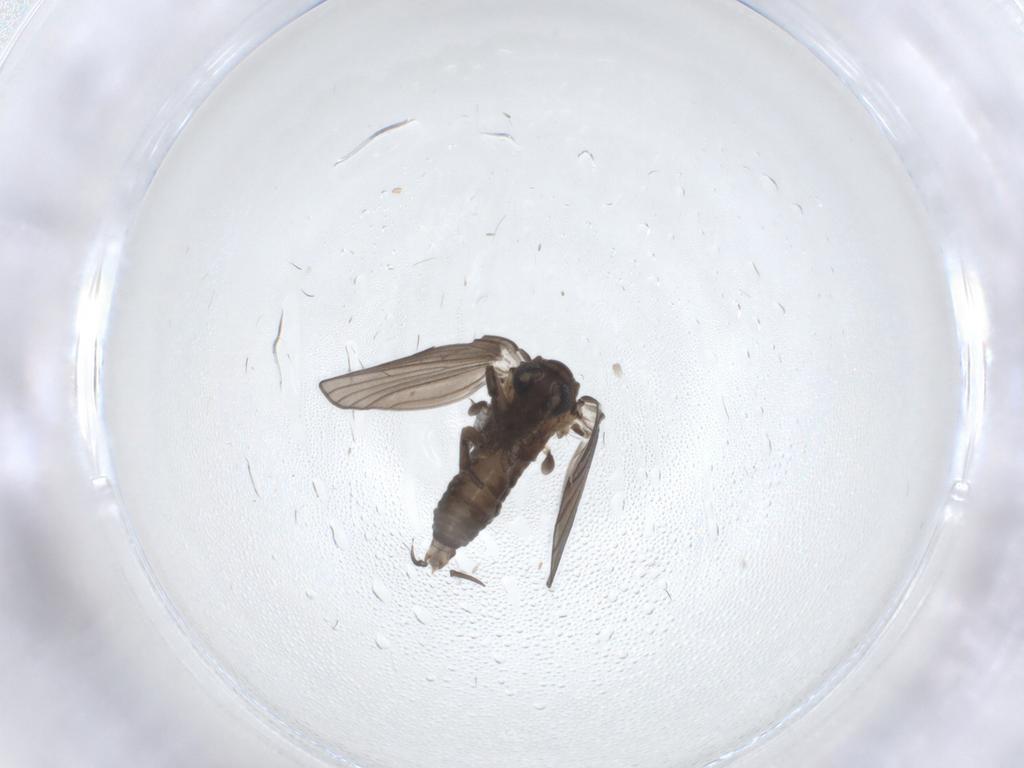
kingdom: Animalia
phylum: Arthropoda
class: Insecta
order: Diptera
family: Psychodidae
